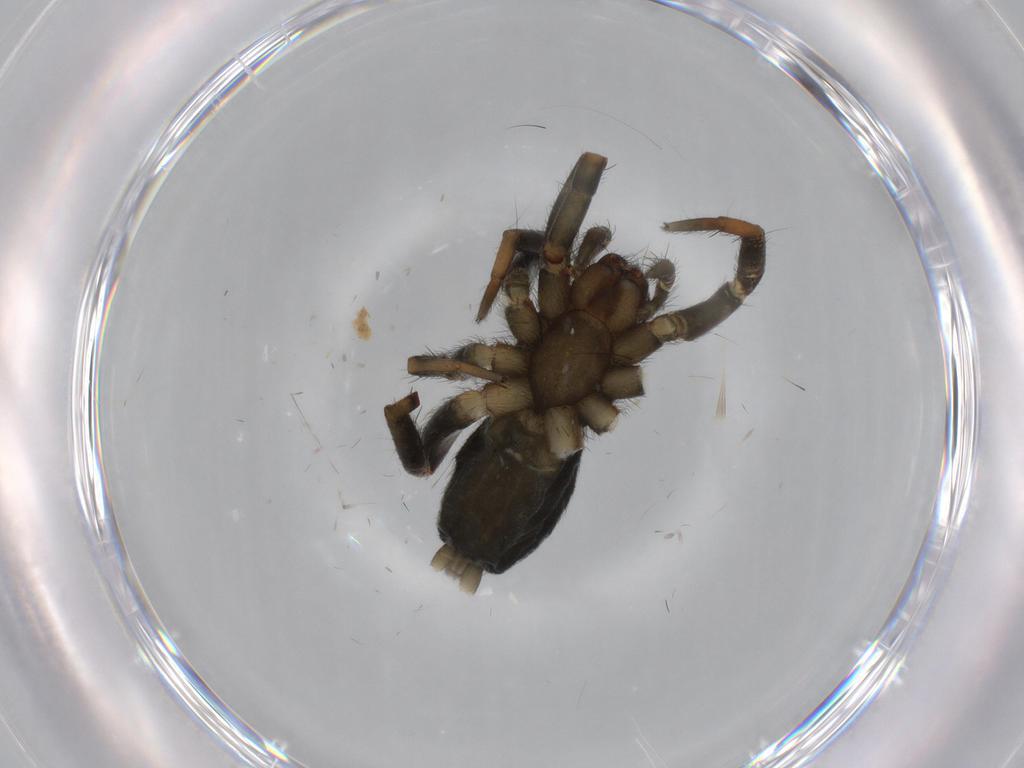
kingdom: Animalia
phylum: Arthropoda
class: Arachnida
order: Araneae
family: Gnaphosidae
